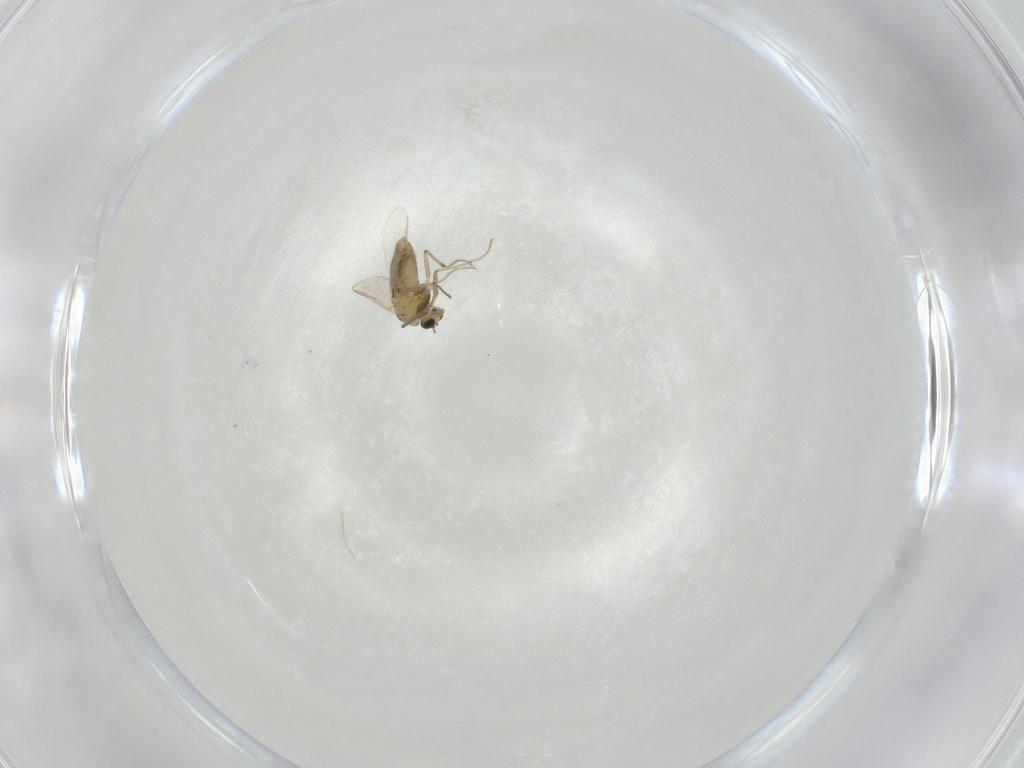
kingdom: Animalia
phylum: Arthropoda
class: Insecta
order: Diptera
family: Chironomidae
